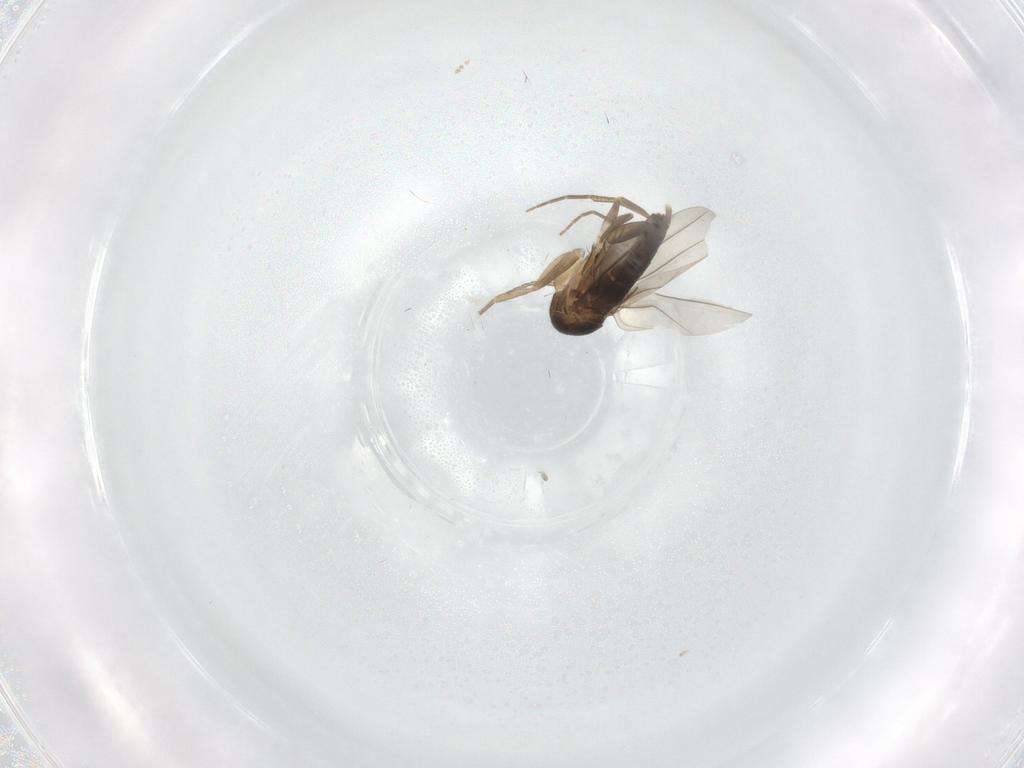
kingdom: Animalia
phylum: Arthropoda
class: Insecta
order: Diptera
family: Phoridae
